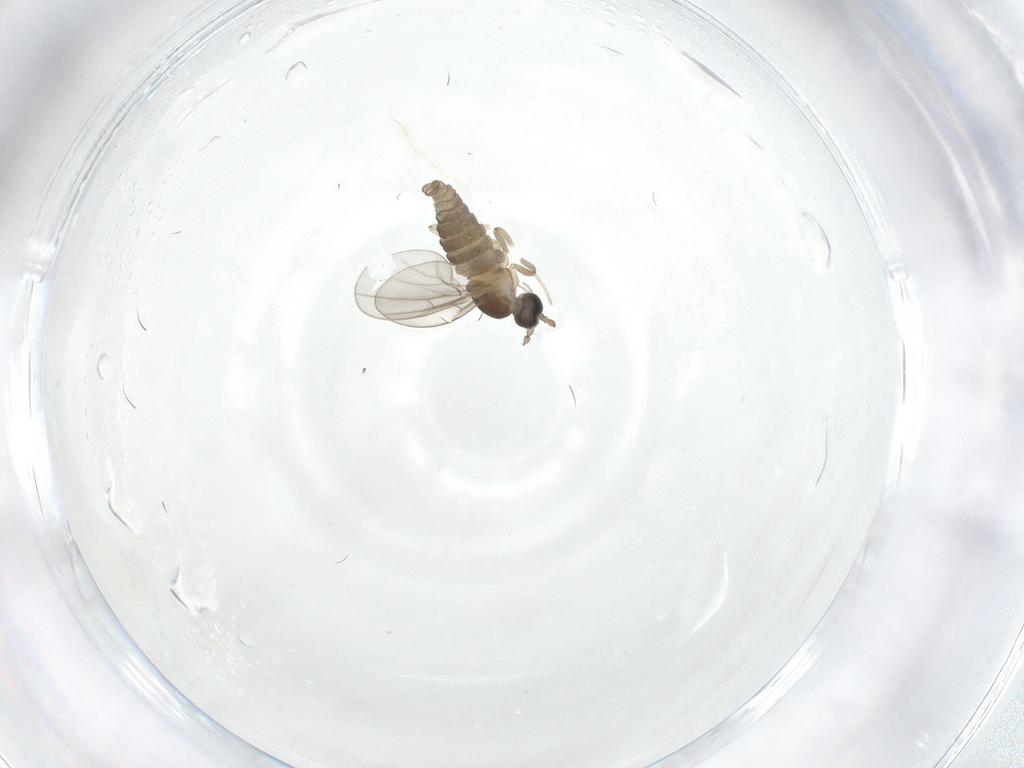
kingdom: Animalia
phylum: Arthropoda
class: Insecta
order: Diptera
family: Cecidomyiidae
